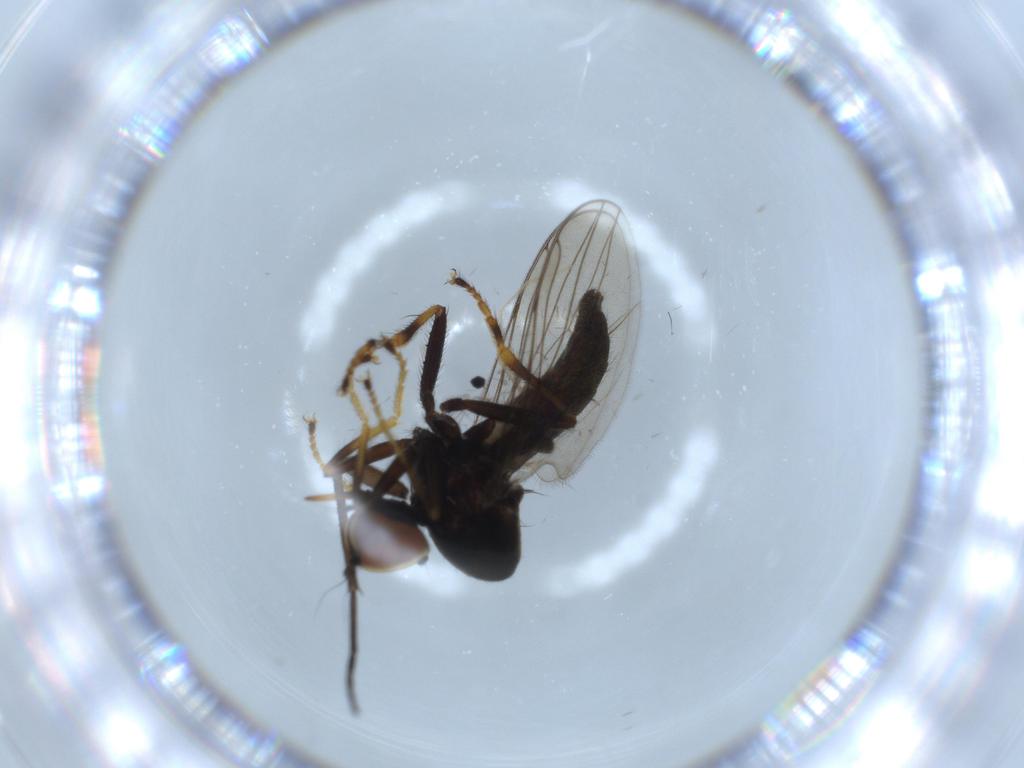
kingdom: Animalia
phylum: Arthropoda
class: Insecta
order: Diptera
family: Hybotidae
